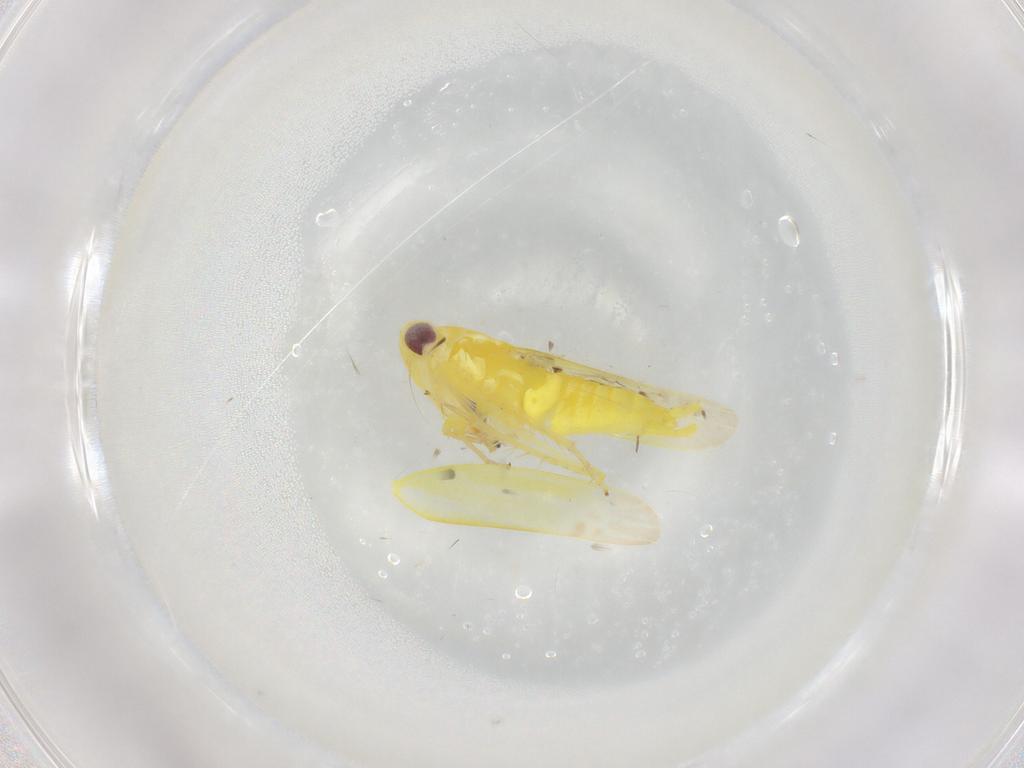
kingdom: Animalia
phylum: Arthropoda
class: Insecta
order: Hemiptera
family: Cicadellidae
